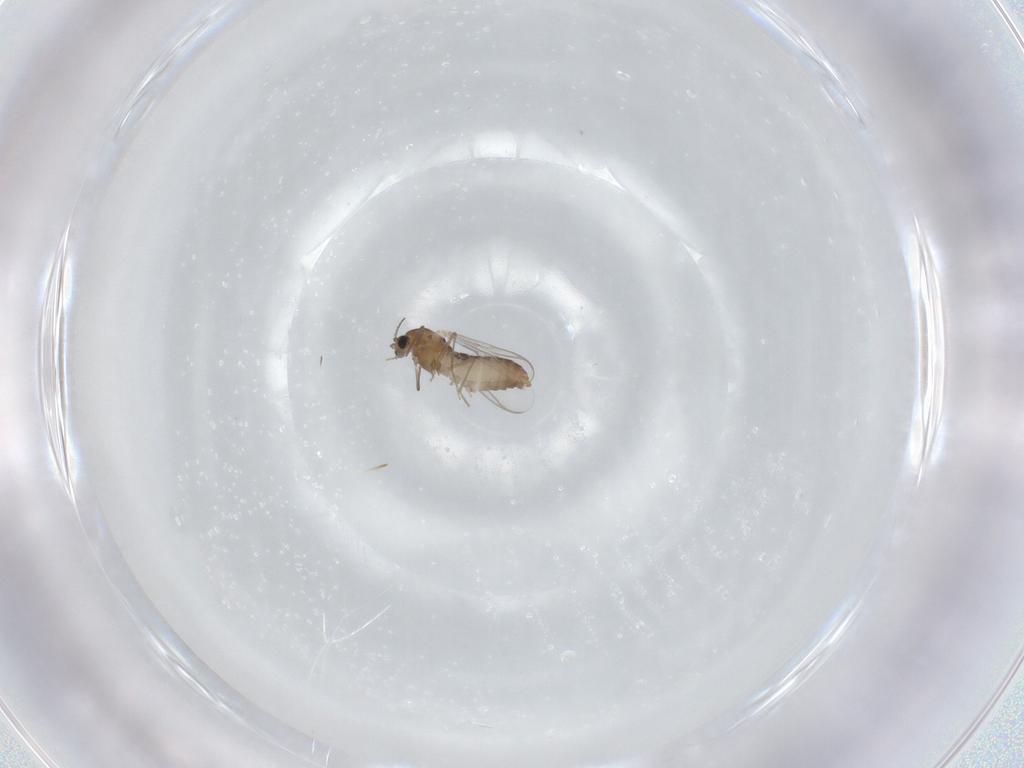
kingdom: Animalia
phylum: Arthropoda
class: Insecta
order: Diptera
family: Chironomidae
